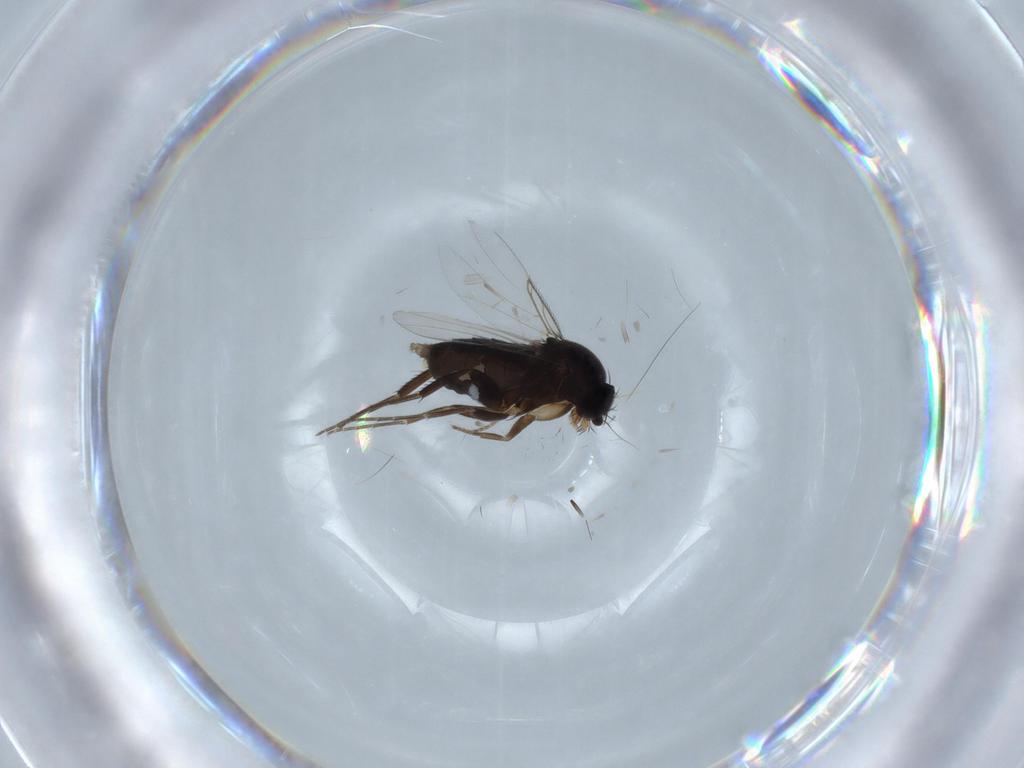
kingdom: Animalia
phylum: Arthropoda
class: Insecta
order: Diptera
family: Phoridae
